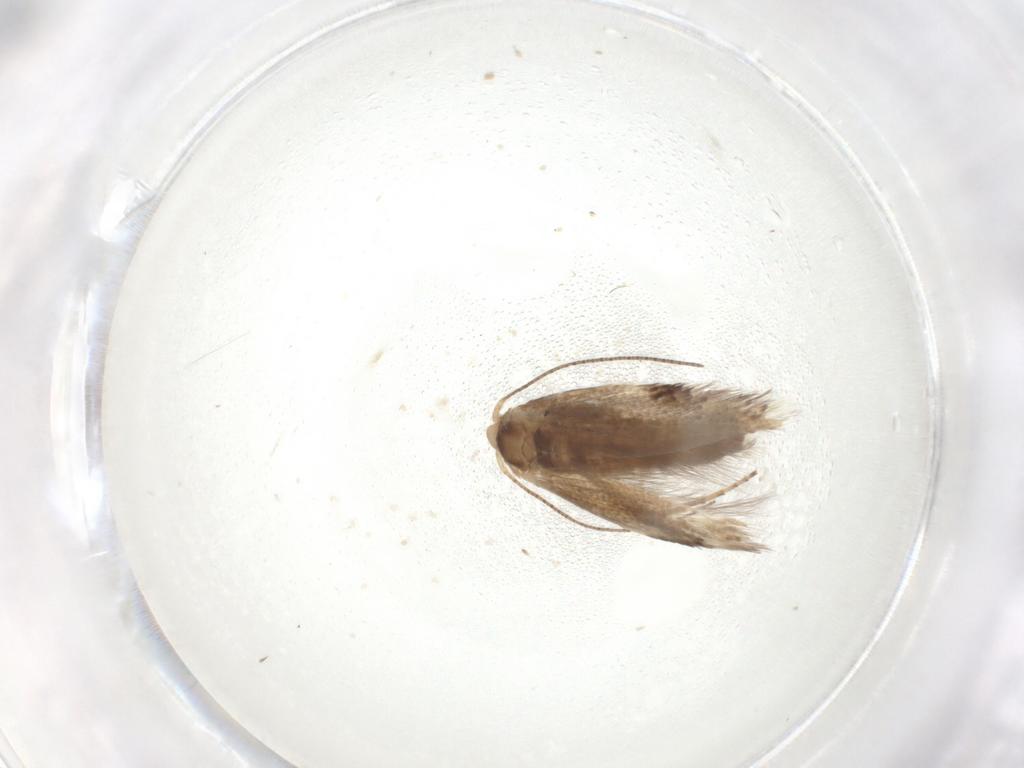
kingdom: Animalia
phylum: Arthropoda
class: Insecta
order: Lepidoptera
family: Bucculatricidae
